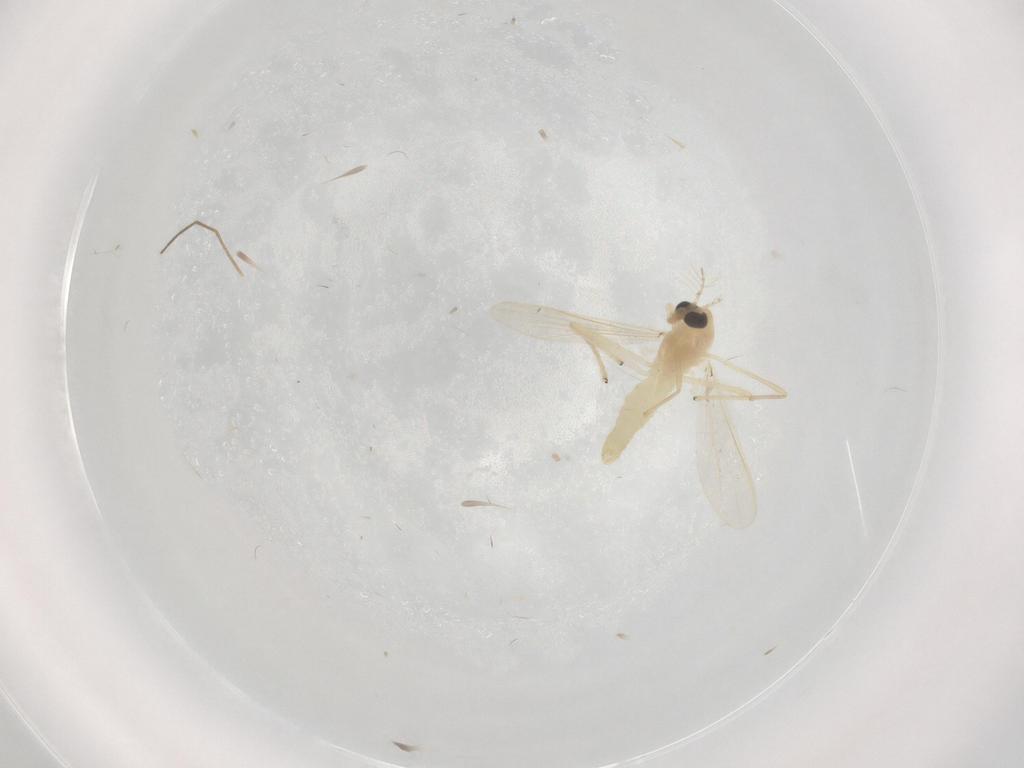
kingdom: Animalia
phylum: Arthropoda
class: Insecta
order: Diptera
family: Chironomidae
